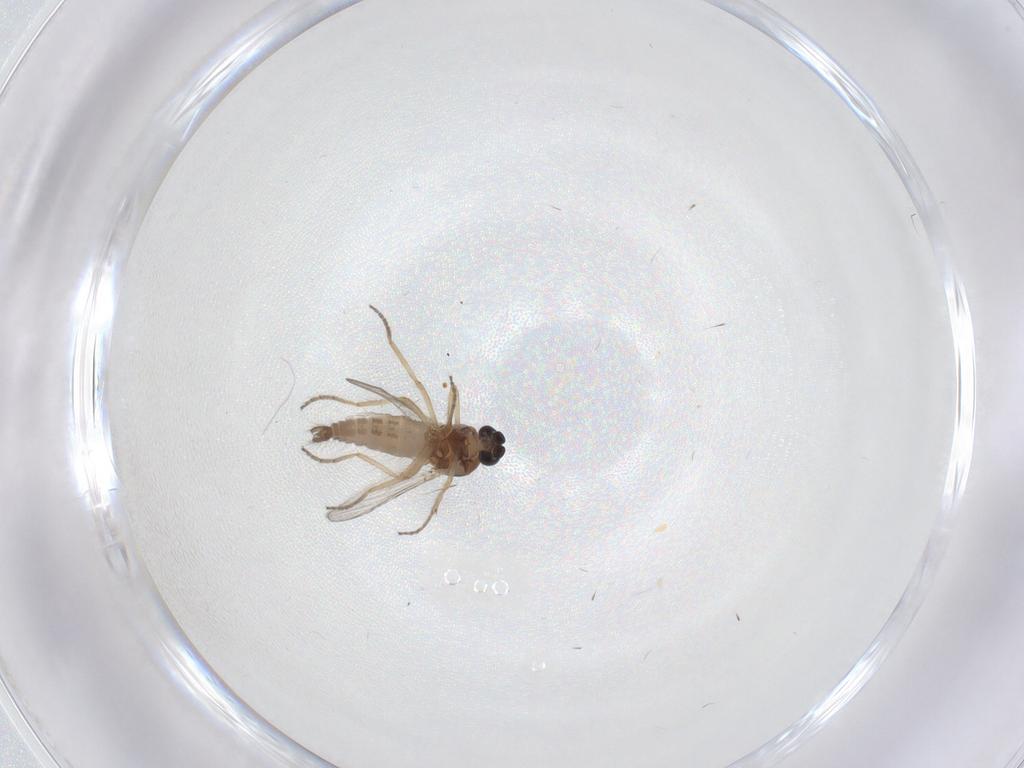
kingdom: Animalia
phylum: Arthropoda
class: Insecta
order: Diptera
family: Ceratopogonidae
